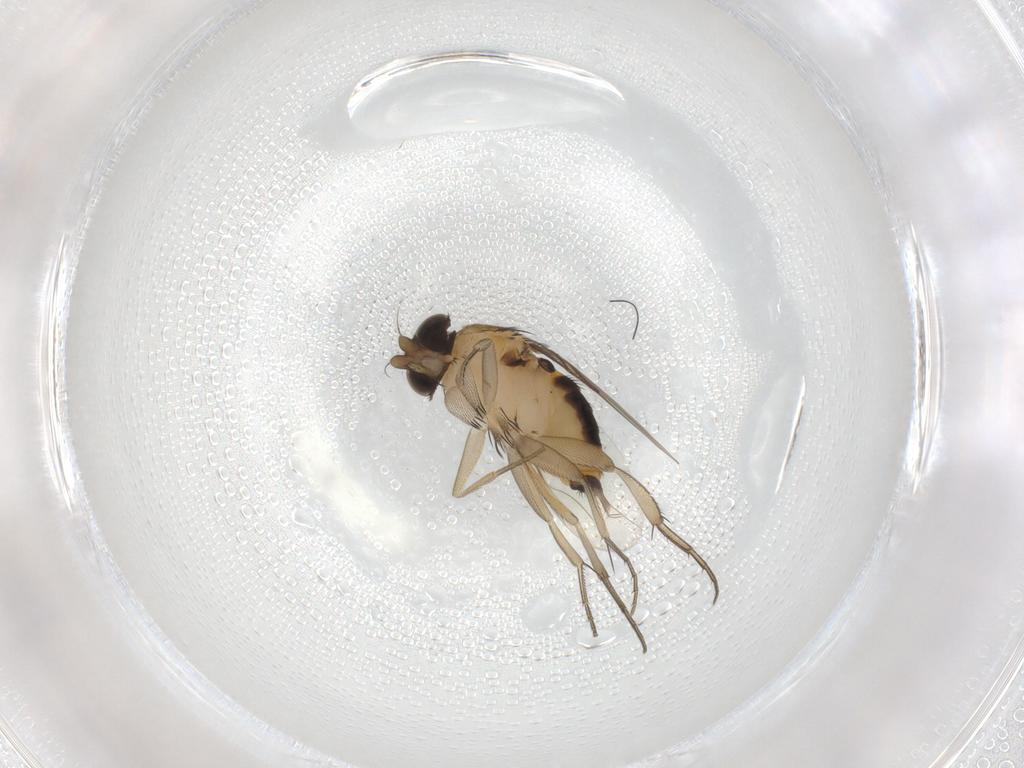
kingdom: Animalia
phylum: Arthropoda
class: Insecta
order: Diptera
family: Phoridae
